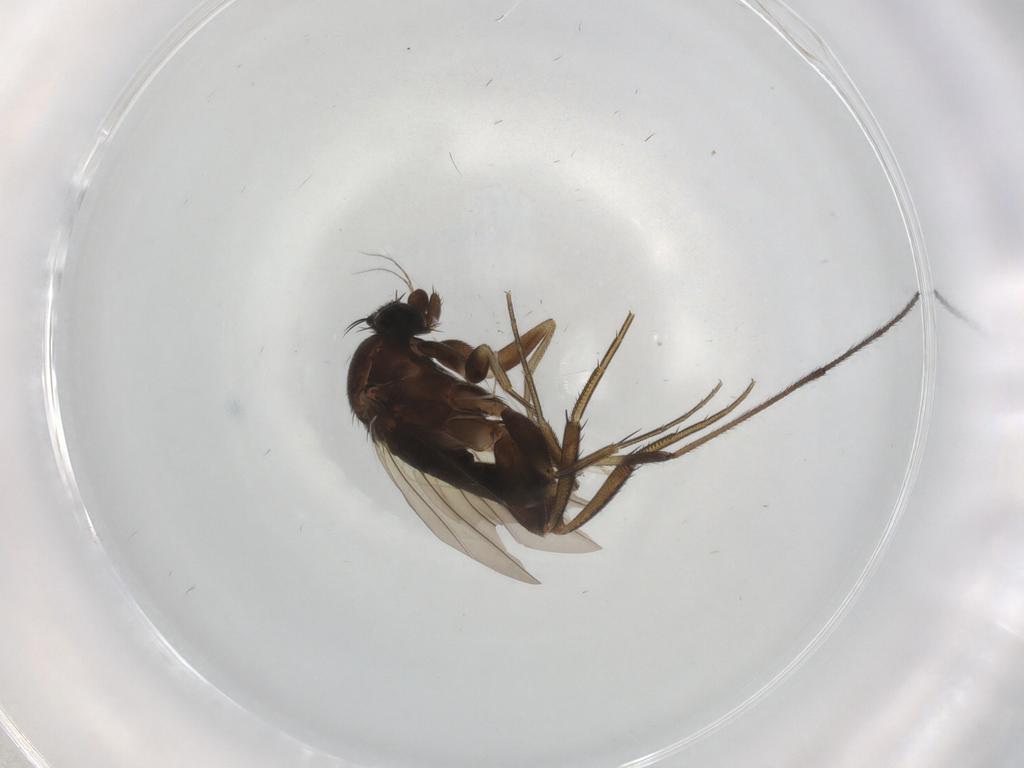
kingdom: Animalia
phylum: Arthropoda
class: Insecta
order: Diptera
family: Phoridae
